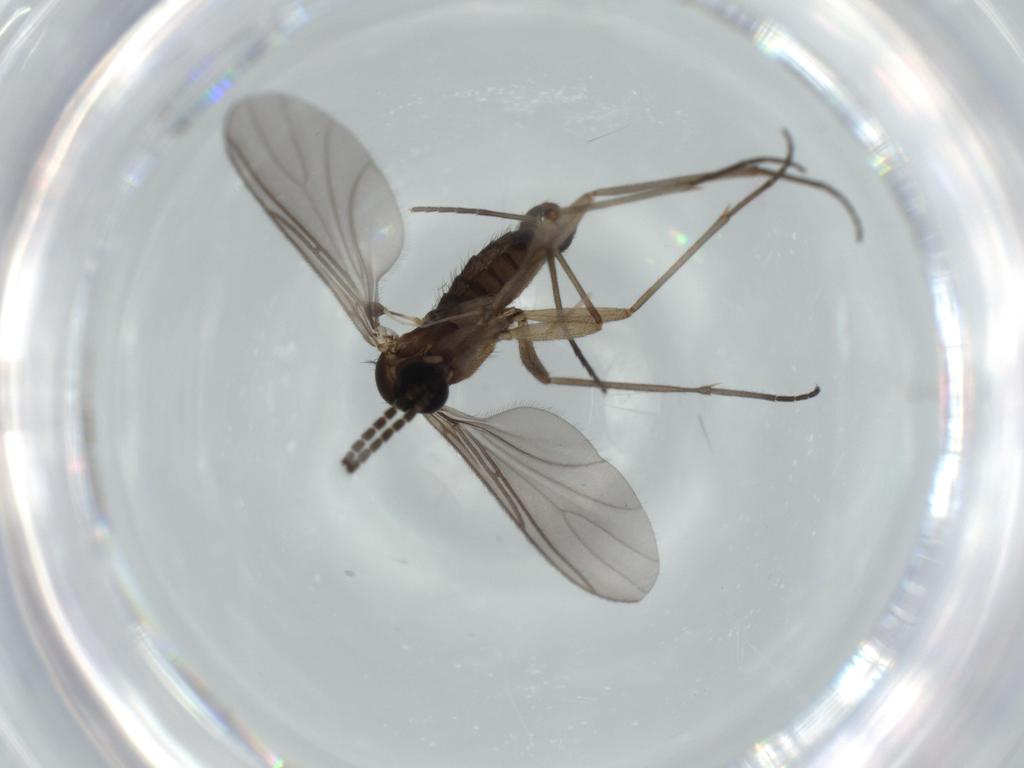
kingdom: Animalia
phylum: Arthropoda
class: Insecta
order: Diptera
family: Sciaridae
